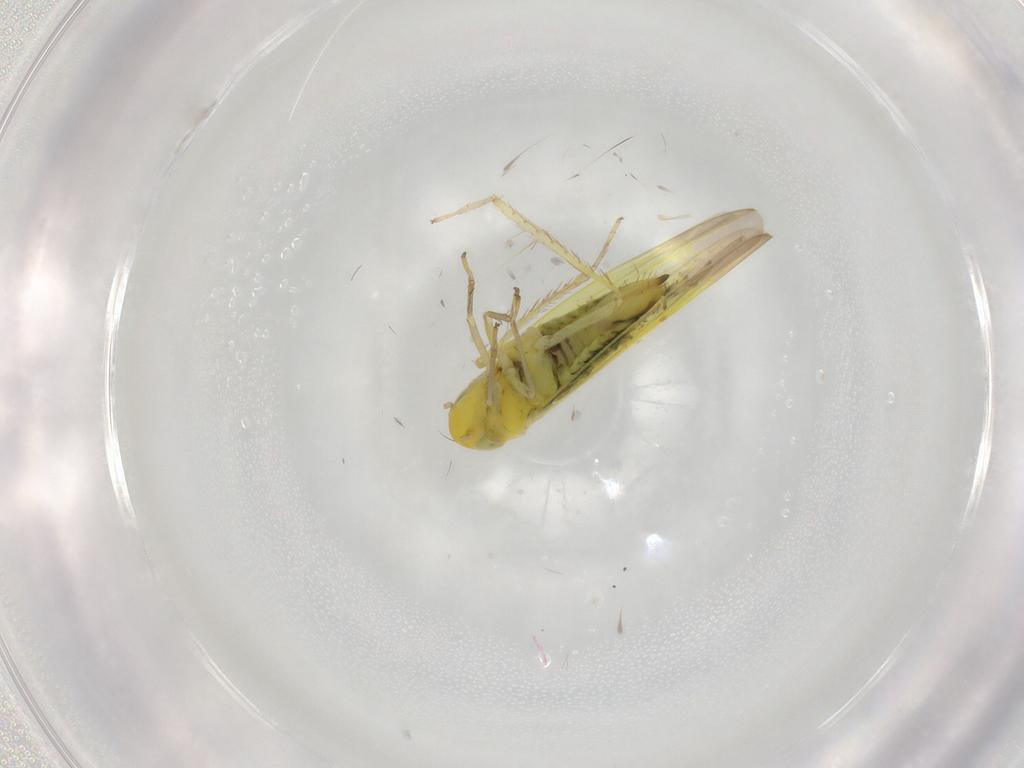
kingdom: Animalia
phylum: Arthropoda
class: Insecta
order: Hemiptera
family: Cicadellidae
